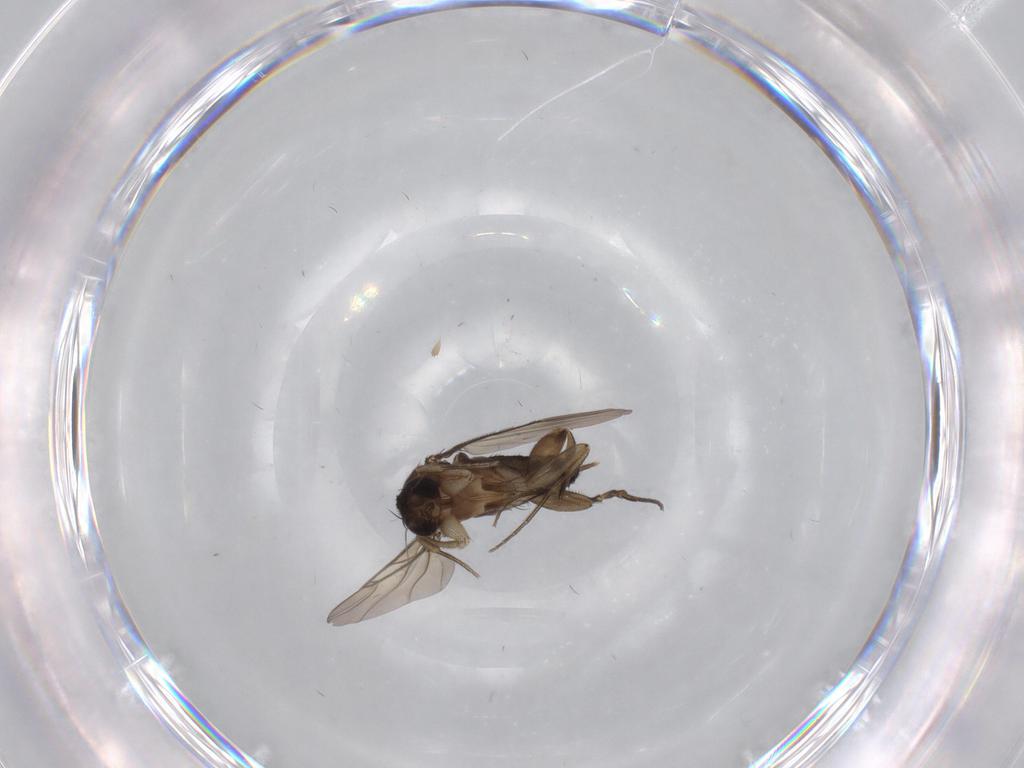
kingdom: Animalia
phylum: Arthropoda
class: Insecta
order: Diptera
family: Phoridae
